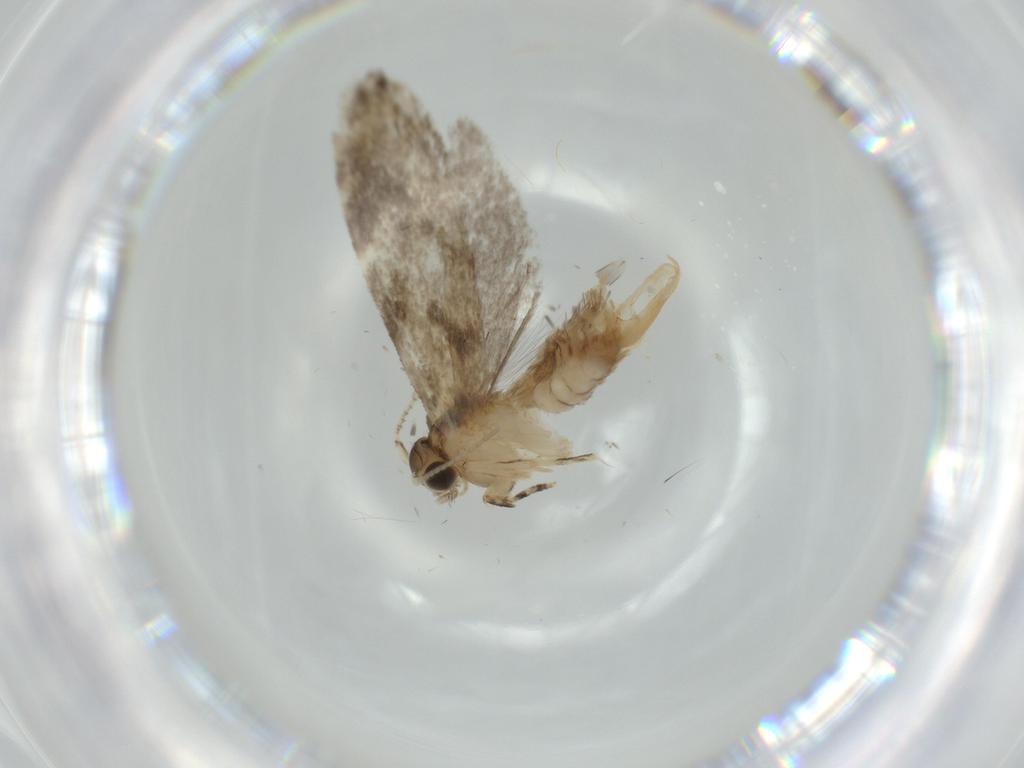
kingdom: Animalia
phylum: Arthropoda
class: Insecta
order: Lepidoptera
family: Tineidae
